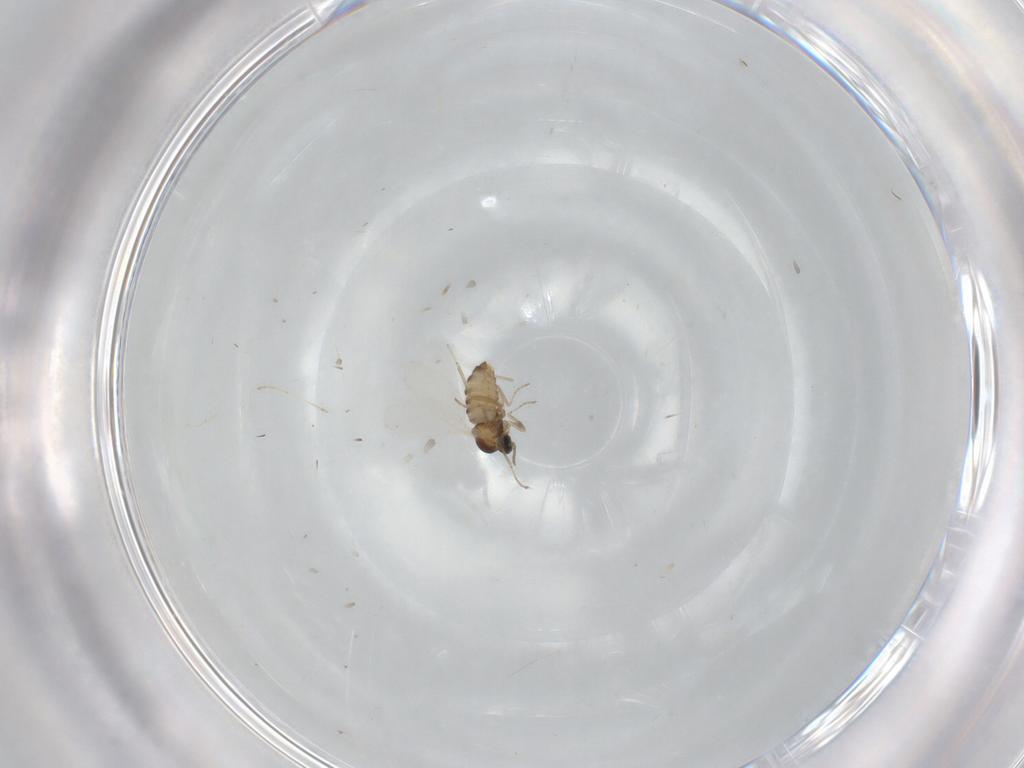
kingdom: Animalia
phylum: Arthropoda
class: Insecta
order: Diptera
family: Cecidomyiidae
